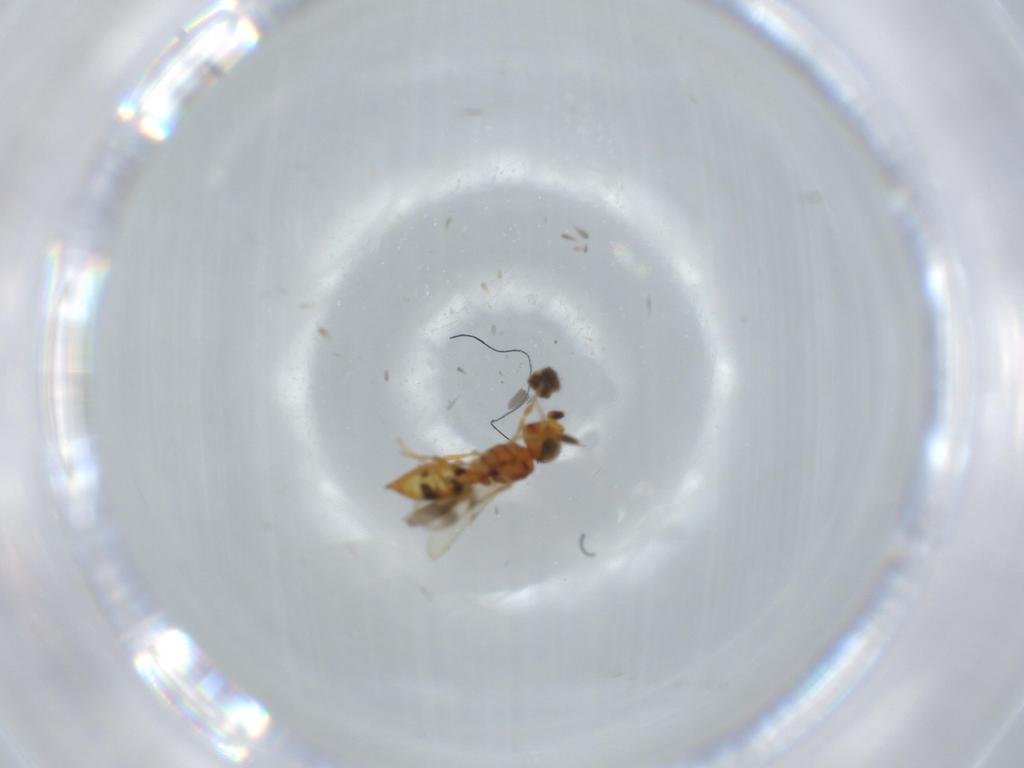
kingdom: Animalia
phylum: Arthropoda
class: Insecta
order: Hymenoptera
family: Scelionidae
